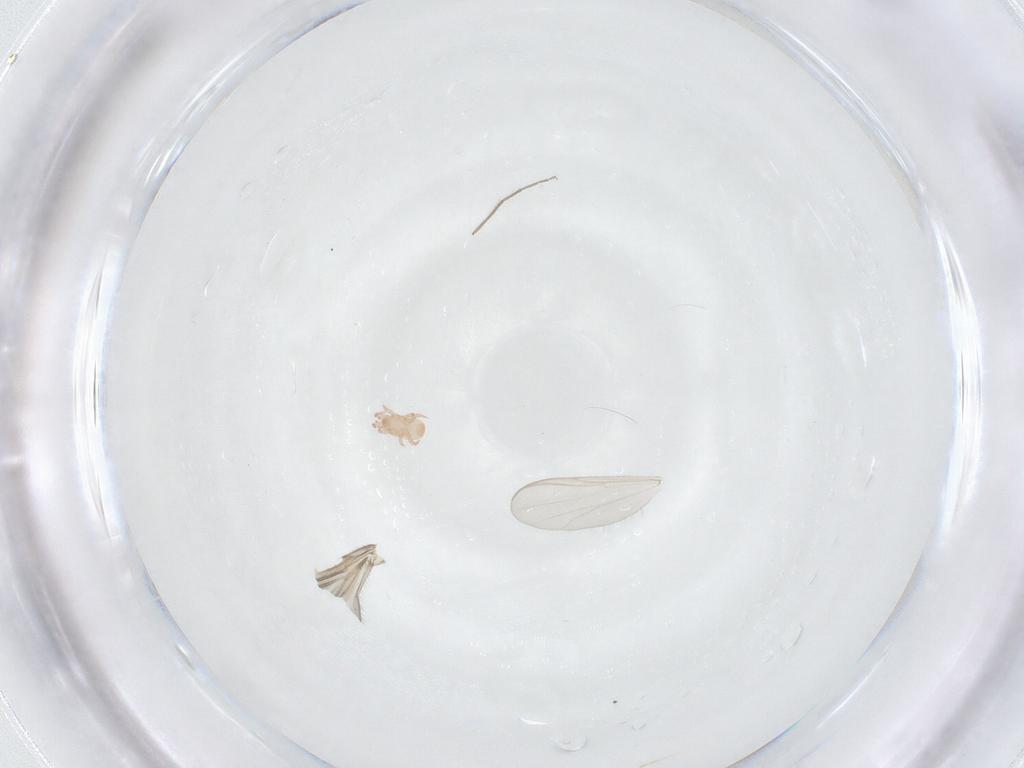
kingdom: Animalia
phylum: Arthropoda
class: Insecta
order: Diptera
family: Sciaridae
